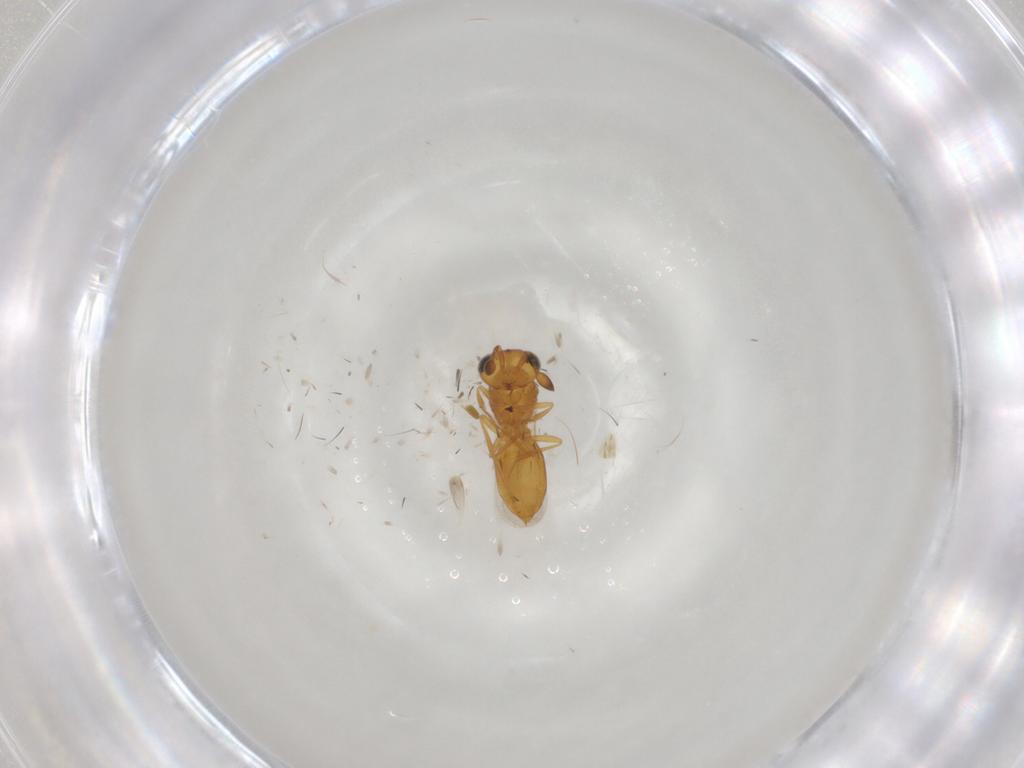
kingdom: Animalia
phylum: Arthropoda
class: Insecta
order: Hymenoptera
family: Scelionidae
